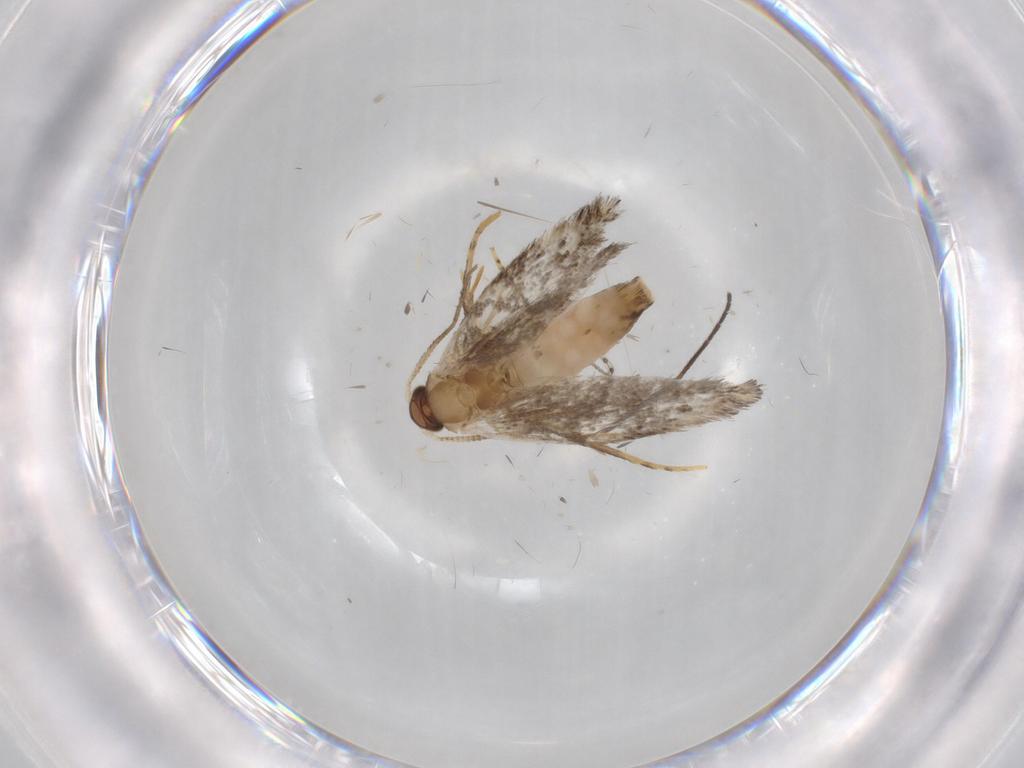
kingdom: Animalia
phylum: Arthropoda
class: Insecta
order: Lepidoptera
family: Tineidae
